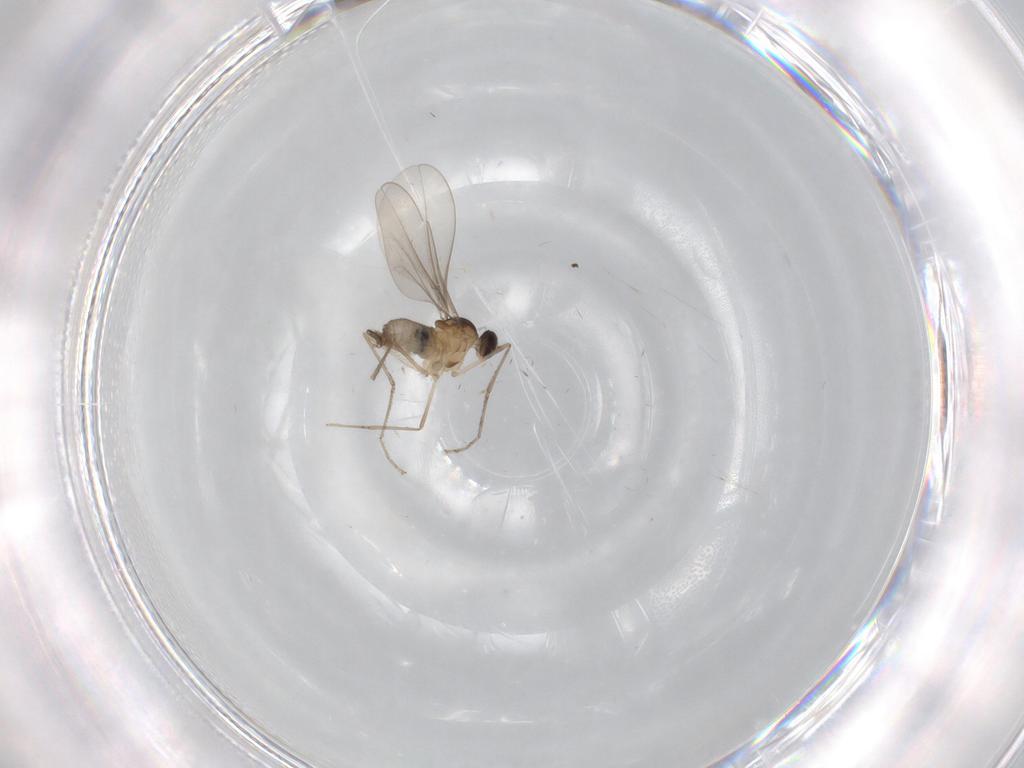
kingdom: Animalia
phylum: Arthropoda
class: Insecta
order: Diptera
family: Cecidomyiidae
